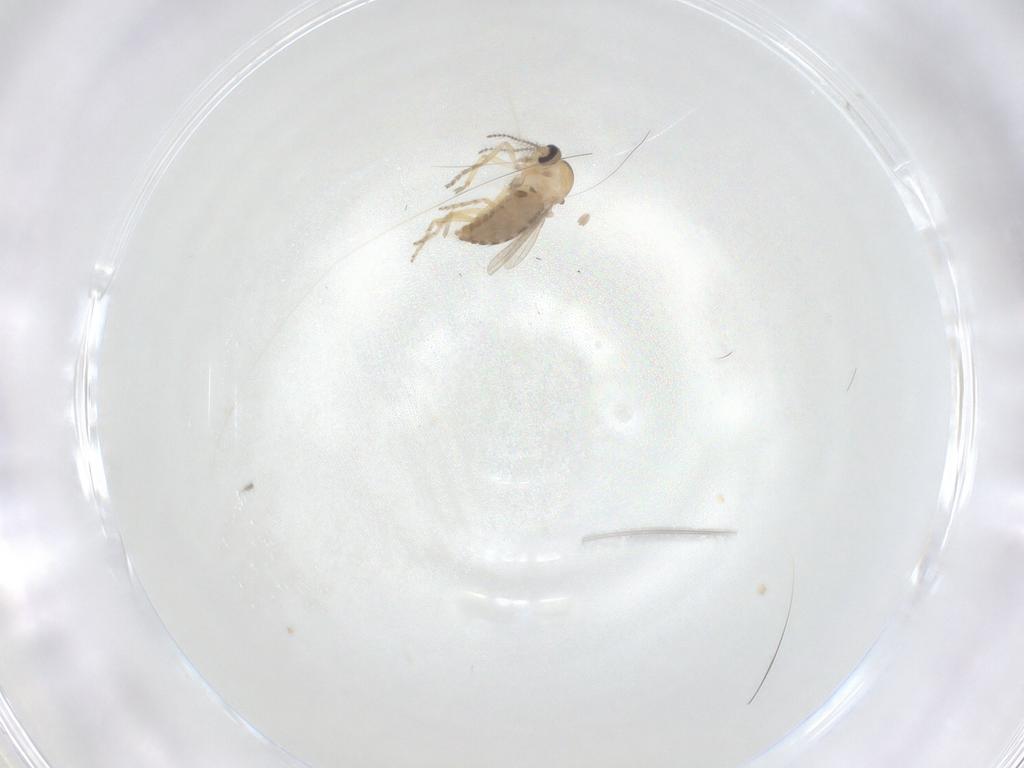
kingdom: Animalia
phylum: Arthropoda
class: Insecta
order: Diptera
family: Ceratopogonidae
